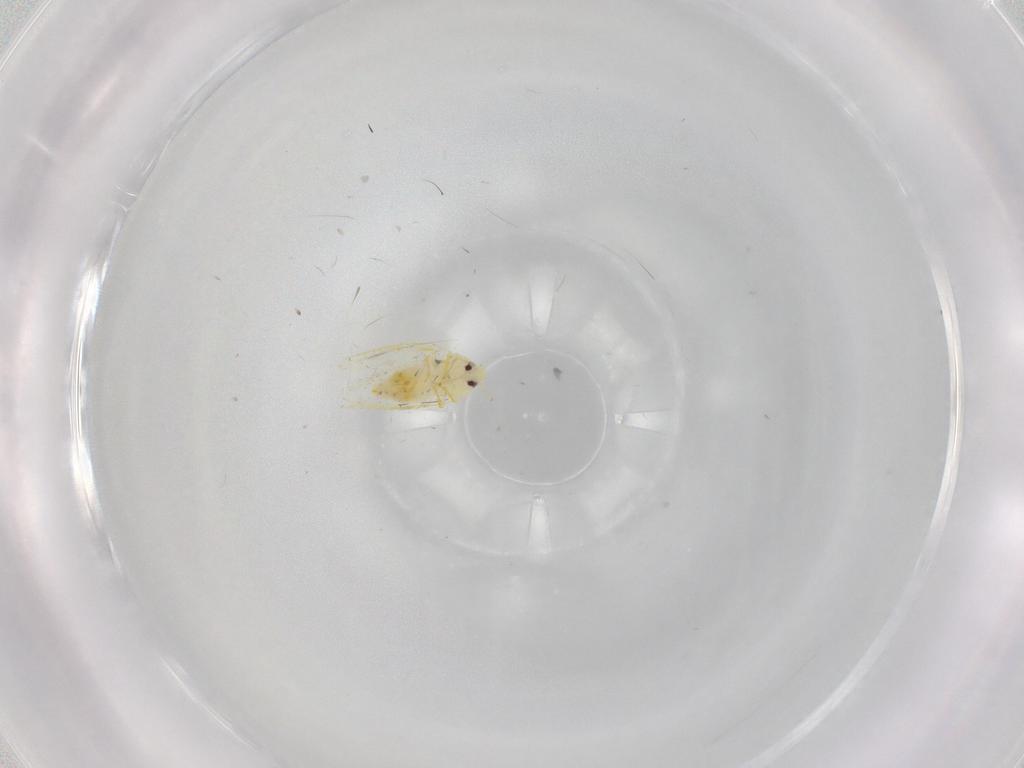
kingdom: Animalia
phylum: Arthropoda
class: Insecta
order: Hemiptera
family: Aleyrodidae
